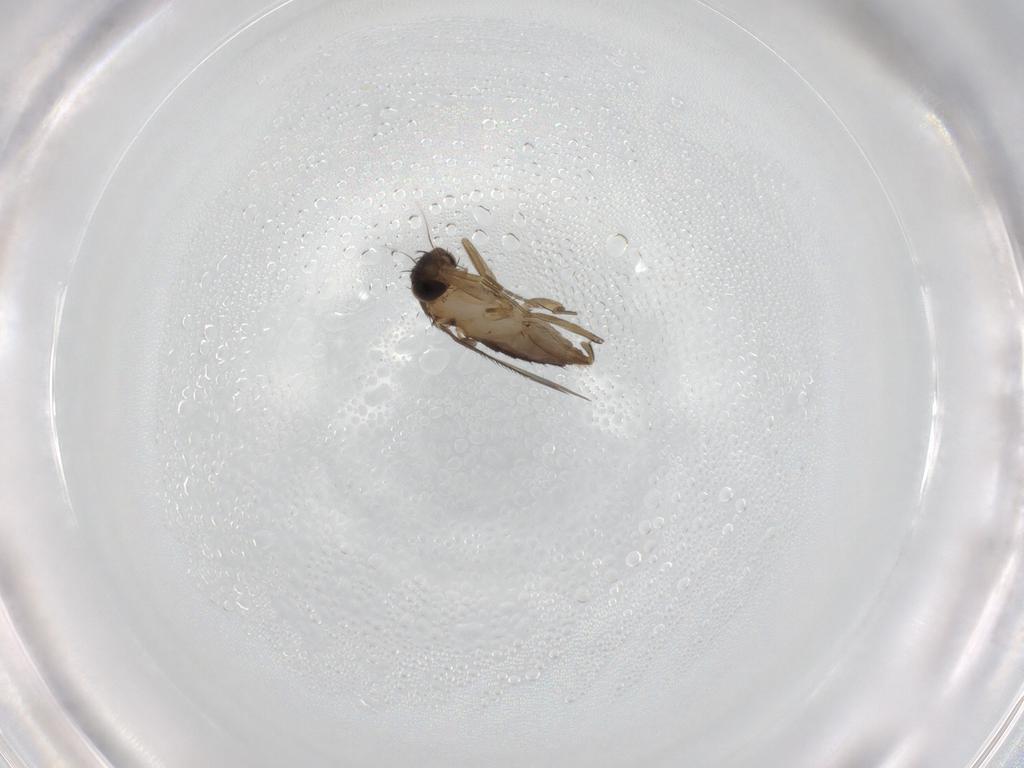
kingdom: Animalia
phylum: Arthropoda
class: Insecta
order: Diptera
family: Phoridae
